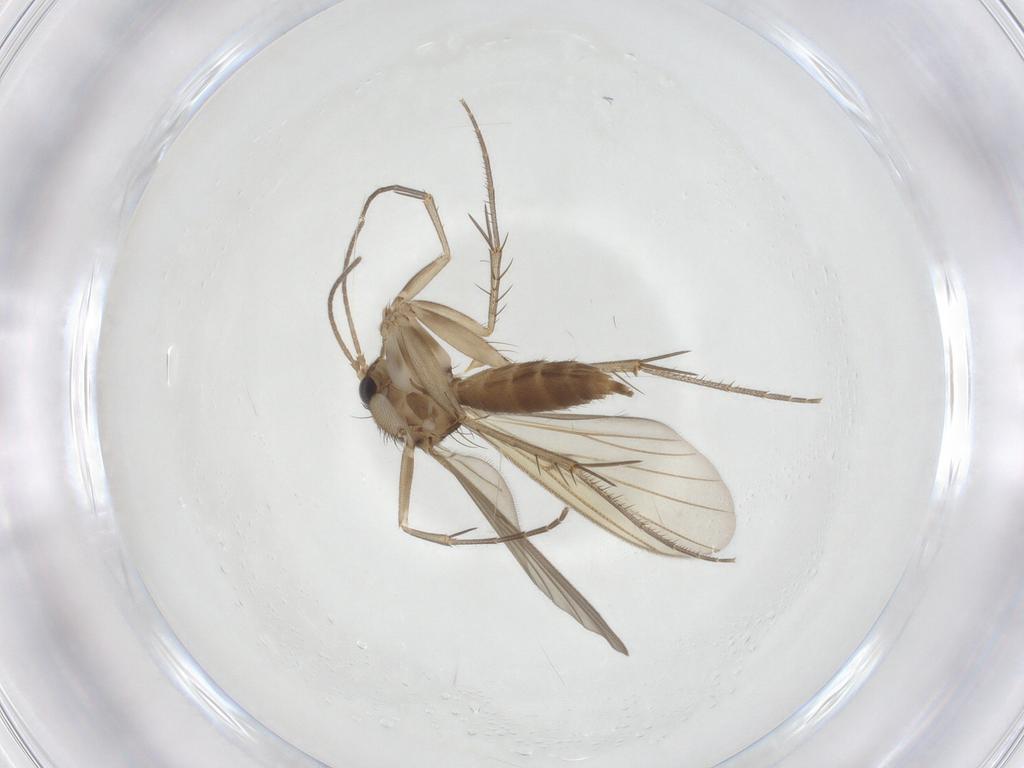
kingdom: Animalia
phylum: Arthropoda
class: Insecta
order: Diptera
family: Mycetophilidae
